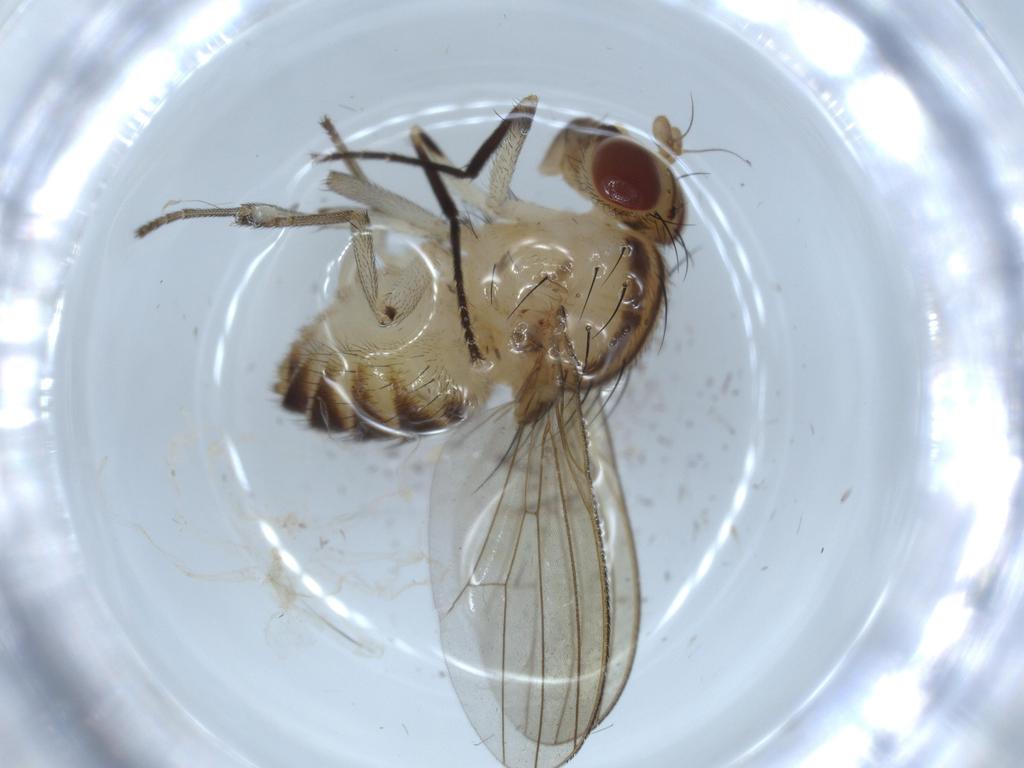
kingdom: Animalia
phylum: Arthropoda
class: Insecta
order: Diptera
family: Lauxaniidae
